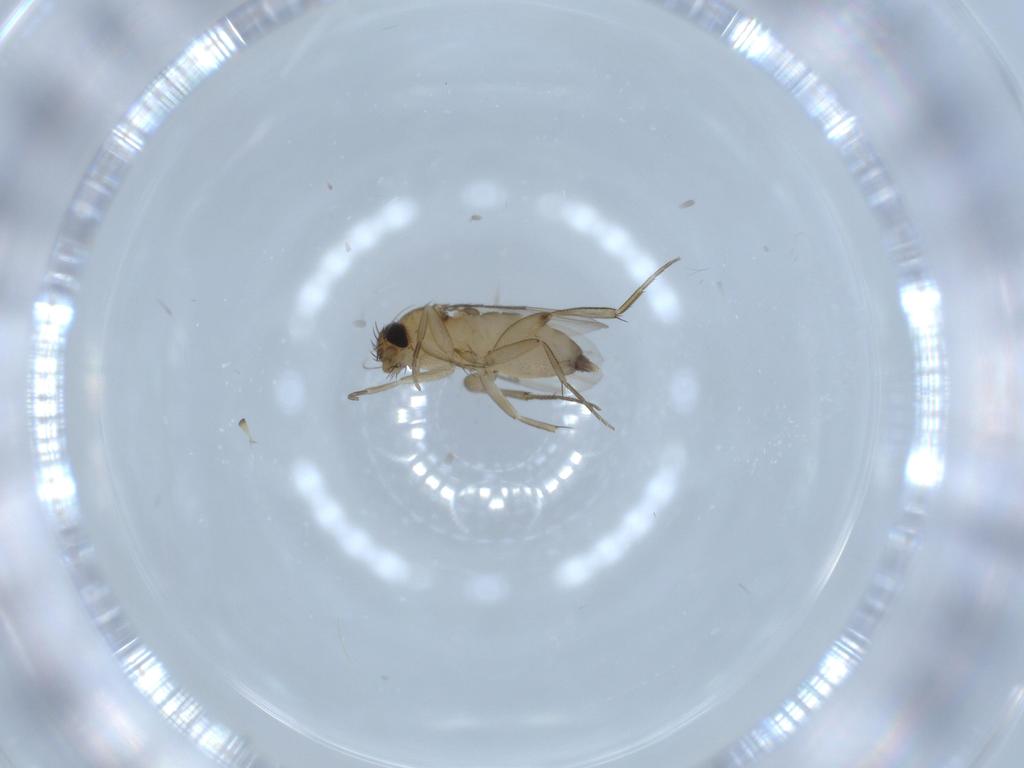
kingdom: Animalia
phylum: Arthropoda
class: Insecta
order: Diptera
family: Phoridae
